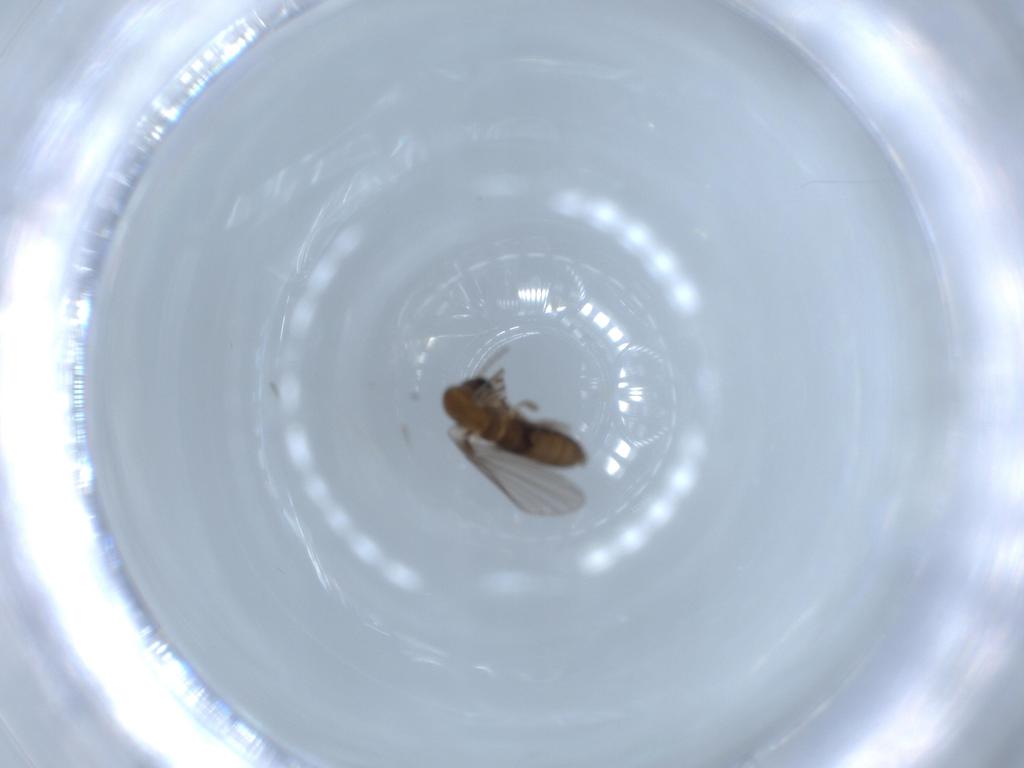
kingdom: Animalia
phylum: Arthropoda
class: Insecta
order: Diptera
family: Psychodidae
